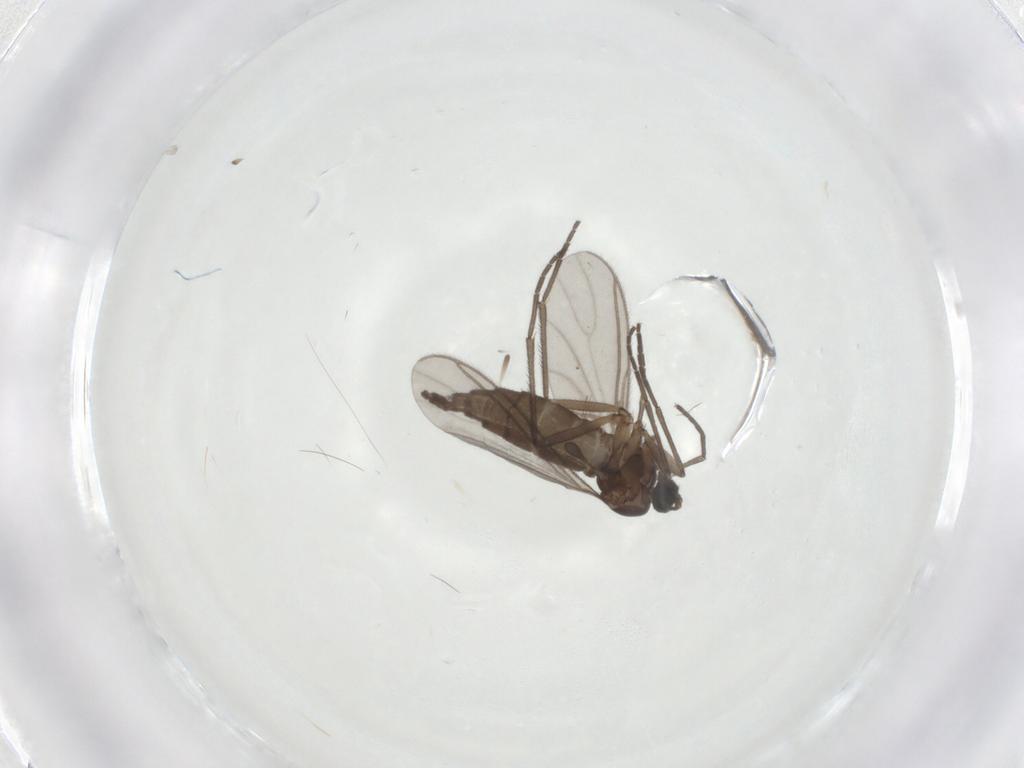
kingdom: Animalia
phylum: Arthropoda
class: Insecta
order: Diptera
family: Psychodidae
